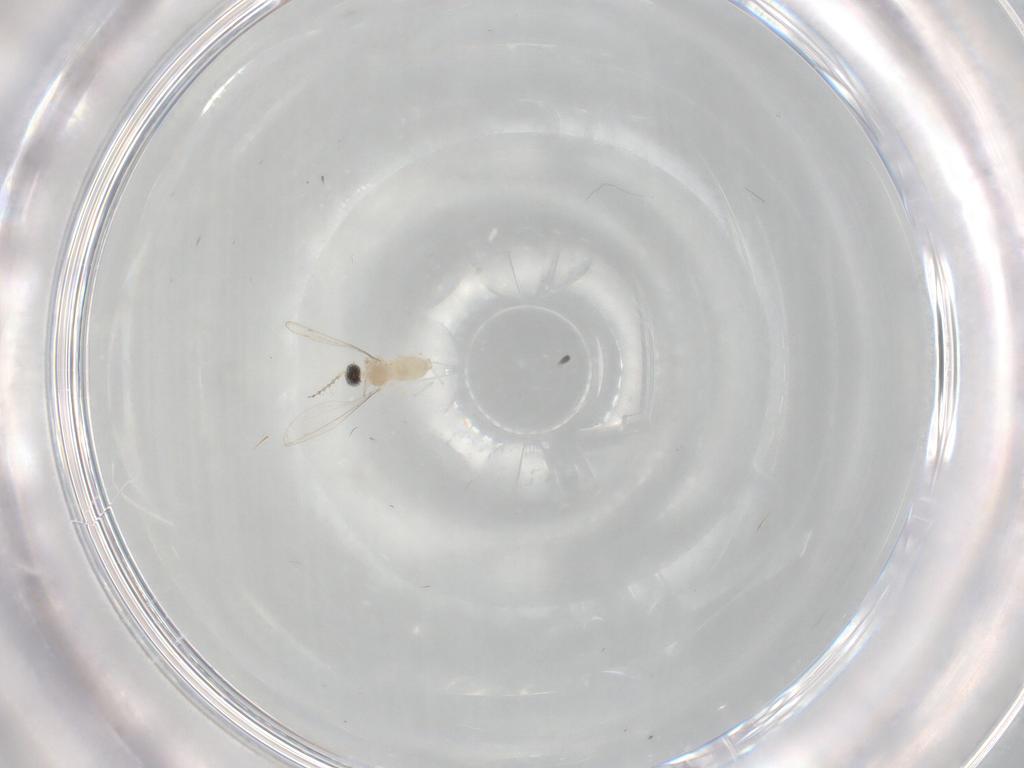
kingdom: Animalia
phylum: Arthropoda
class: Insecta
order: Diptera
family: Cecidomyiidae
